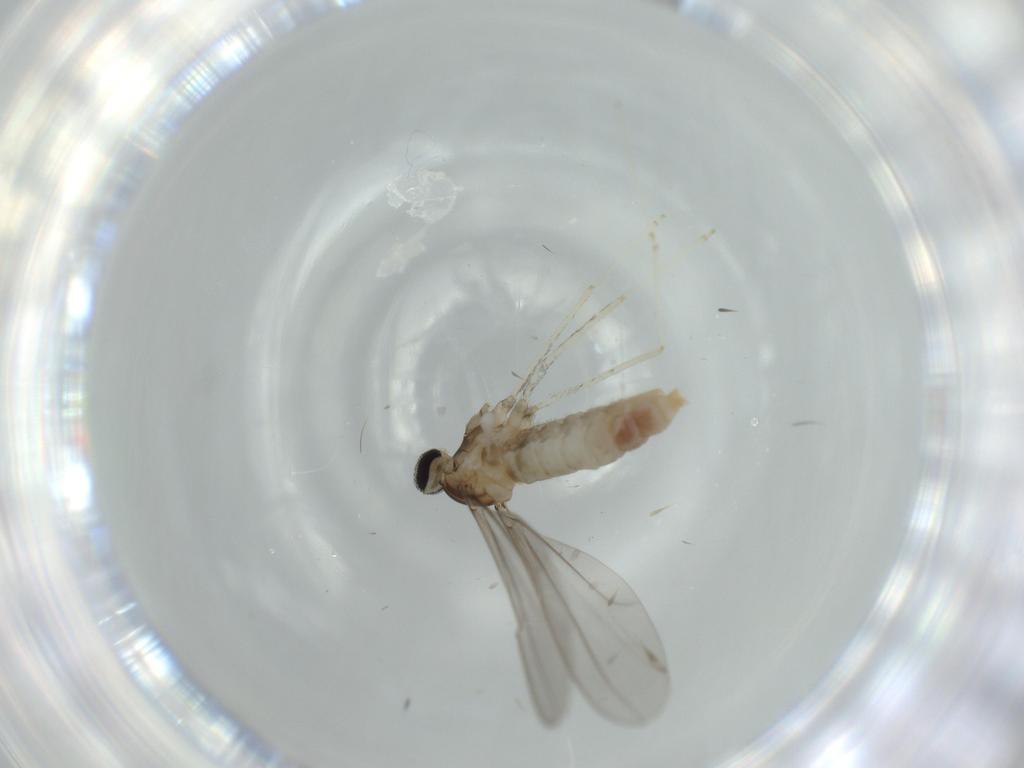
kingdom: Animalia
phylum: Arthropoda
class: Insecta
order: Diptera
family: Cecidomyiidae
